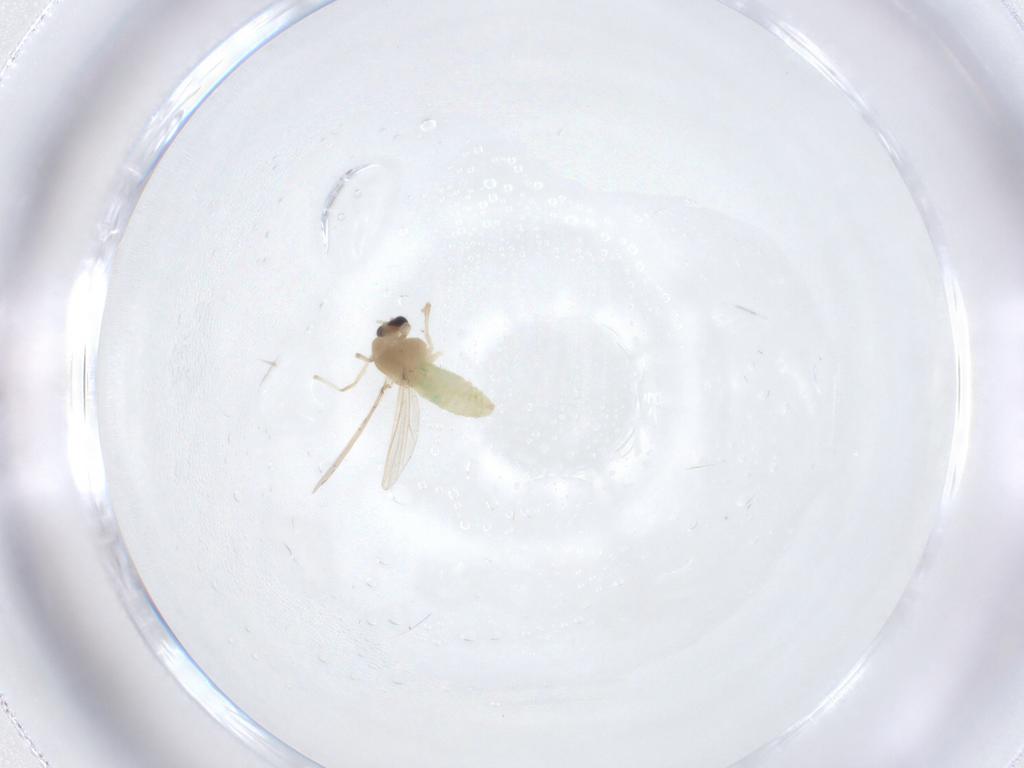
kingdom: Animalia
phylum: Arthropoda
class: Insecta
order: Diptera
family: Chironomidae
